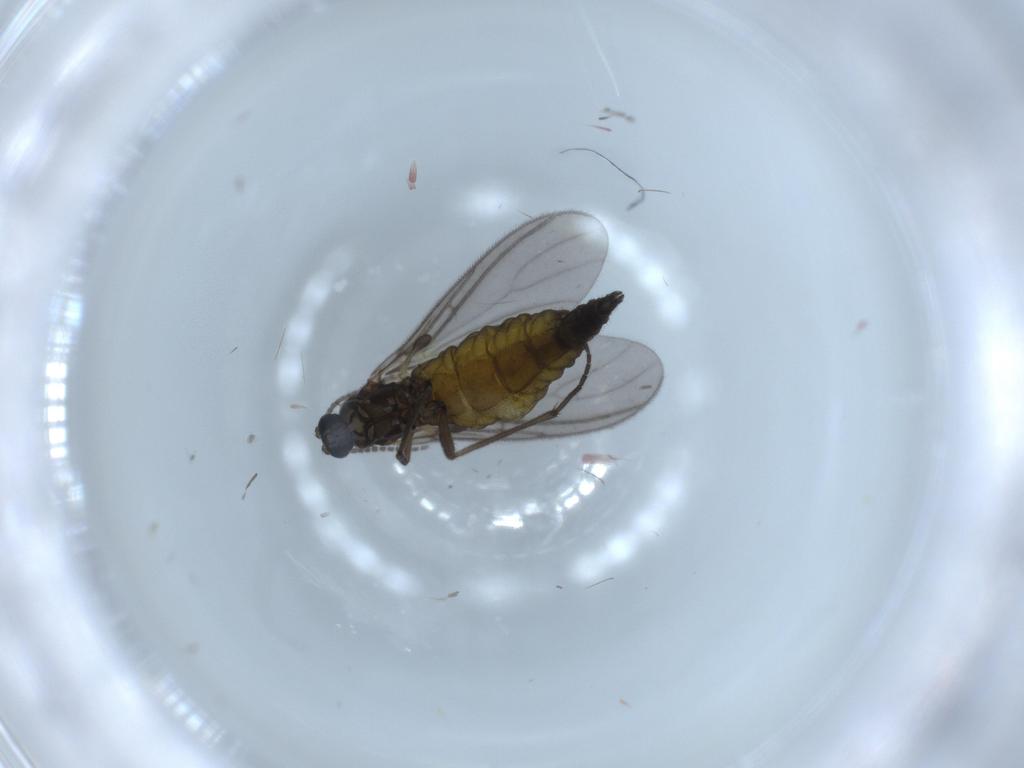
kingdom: Animalia
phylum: Arthropoda
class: Insecta
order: Diptera
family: Sciaridae
